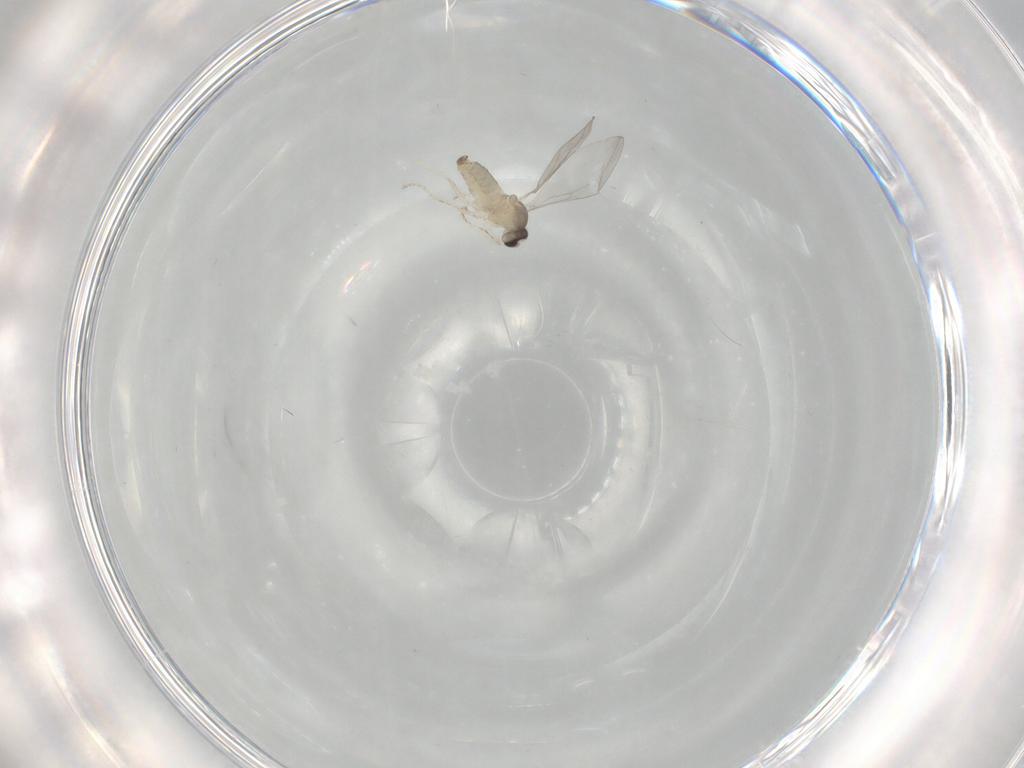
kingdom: Animalia
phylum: Arthropoda
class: Insecta
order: Diptera
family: Cecidomyiidae
